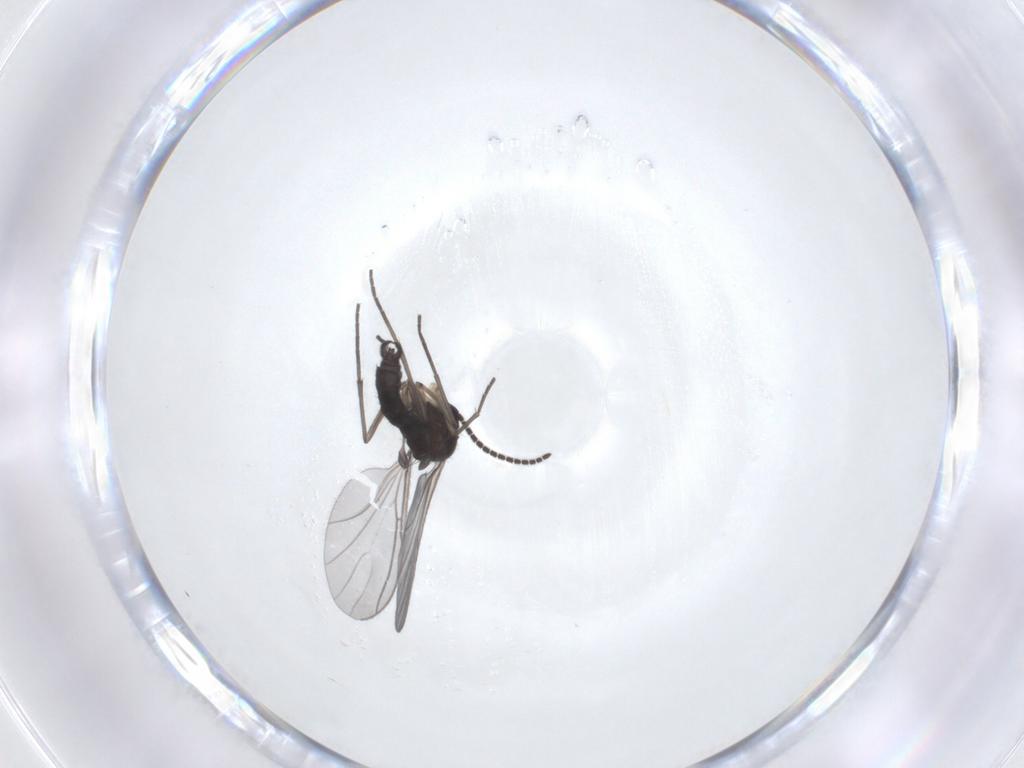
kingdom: Animalia
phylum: Arthropoda
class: Insecta
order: Diptera
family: Sciaridae
